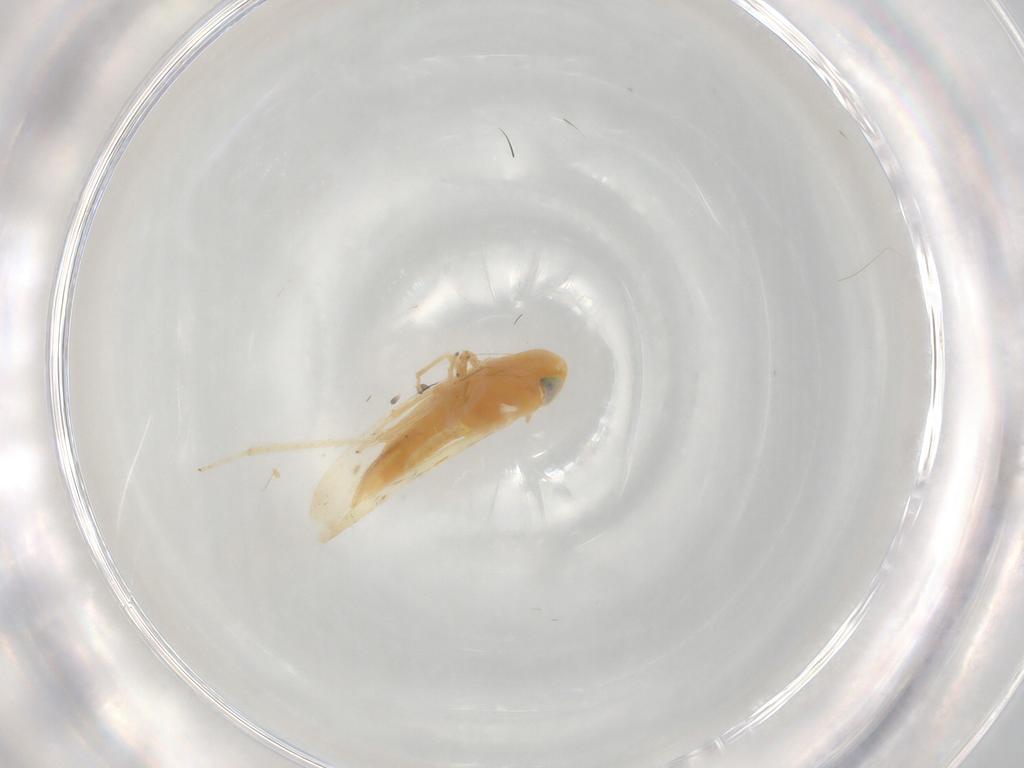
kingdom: Animalia
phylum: Arthropoda
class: Insecta
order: Hemiptera
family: Cicadellidae
